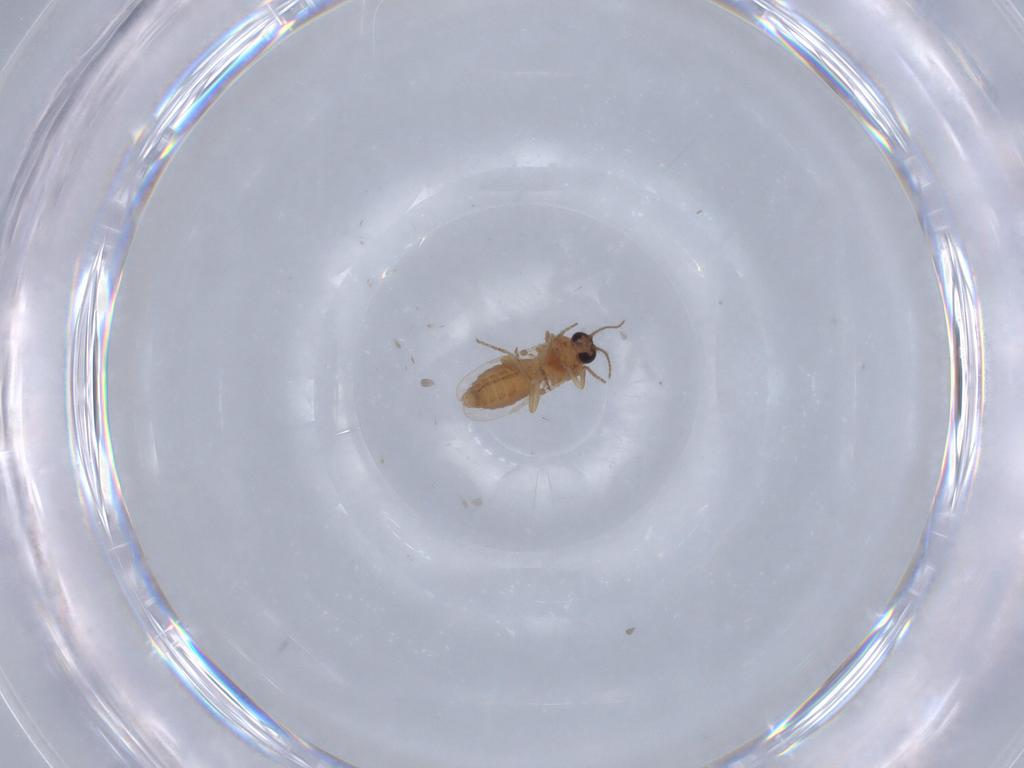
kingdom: Animalia
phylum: Arthropoda
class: Insecta
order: Diptera
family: Ceratopogonidae
